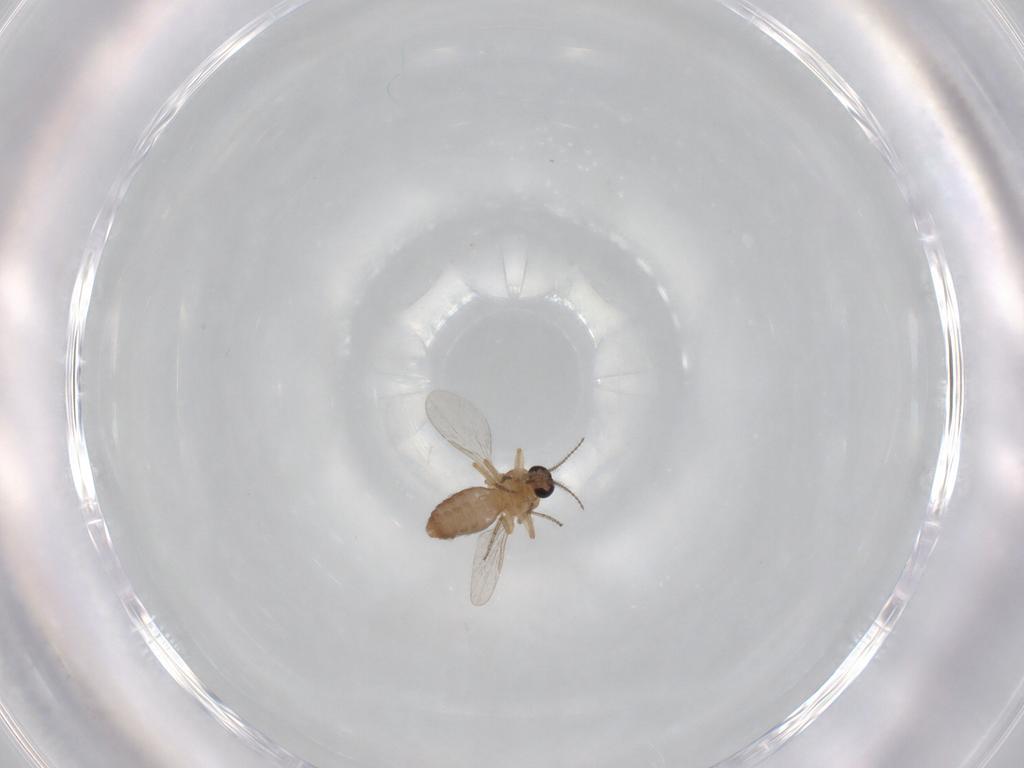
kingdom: Animalia
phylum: Arthropoda
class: Insecta
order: Diptera
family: Ceratopogonidae
